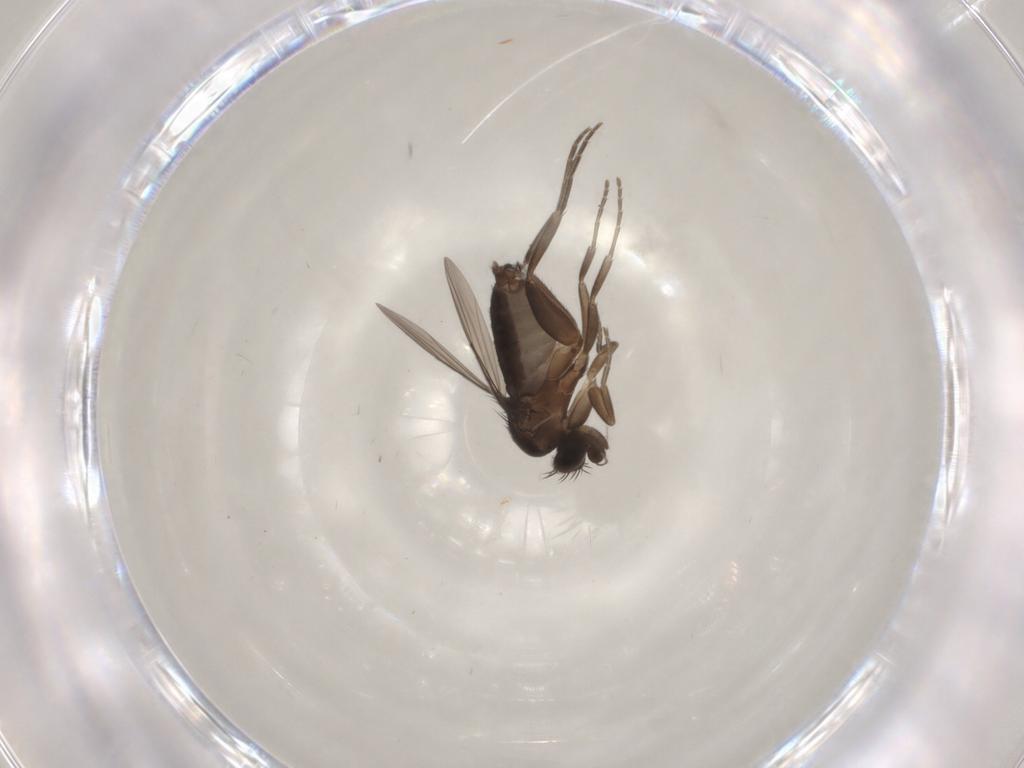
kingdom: Animalia
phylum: Arthropoda
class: Insecta
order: Diptera
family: Phoridae
